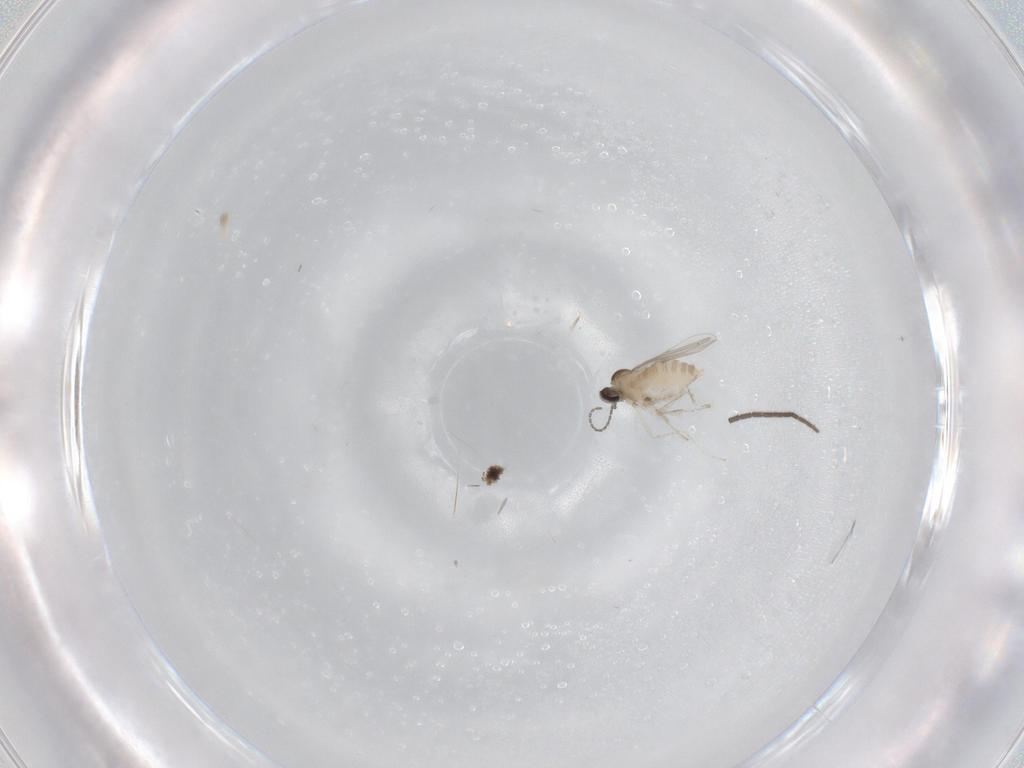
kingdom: Animalia
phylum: Arthropoda
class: Insecta
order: Diptera
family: Cecidomyiidae
